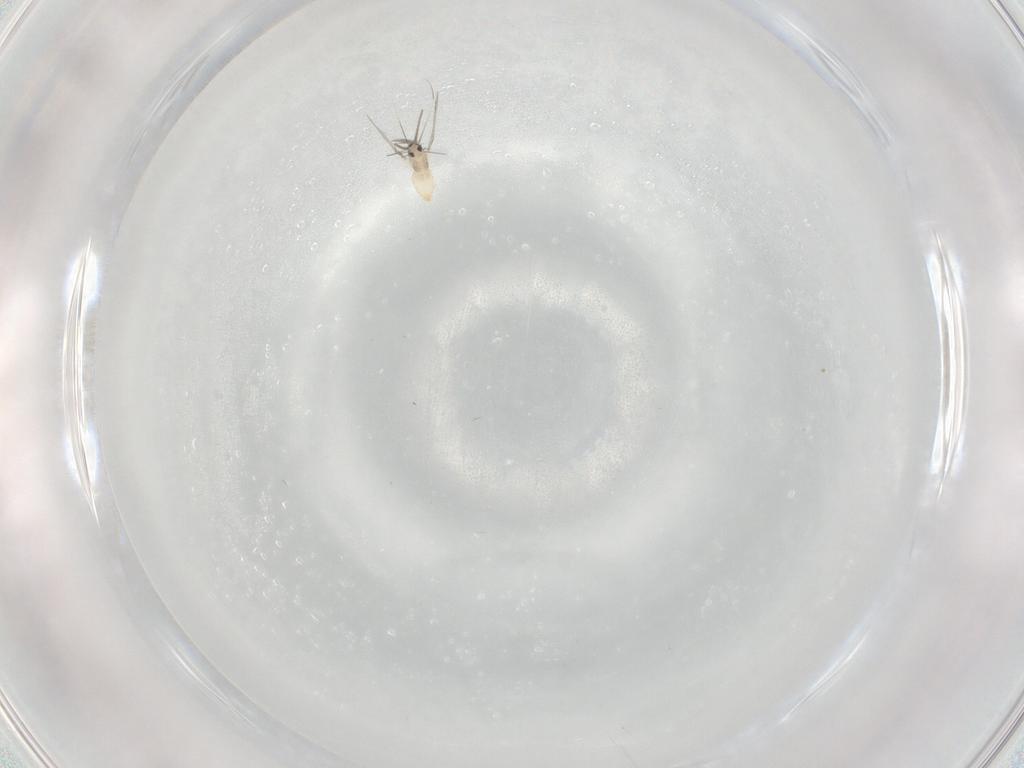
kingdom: Animalia
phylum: Arthropoda
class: Insecta
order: Diptera
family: Cecidomyiidae
